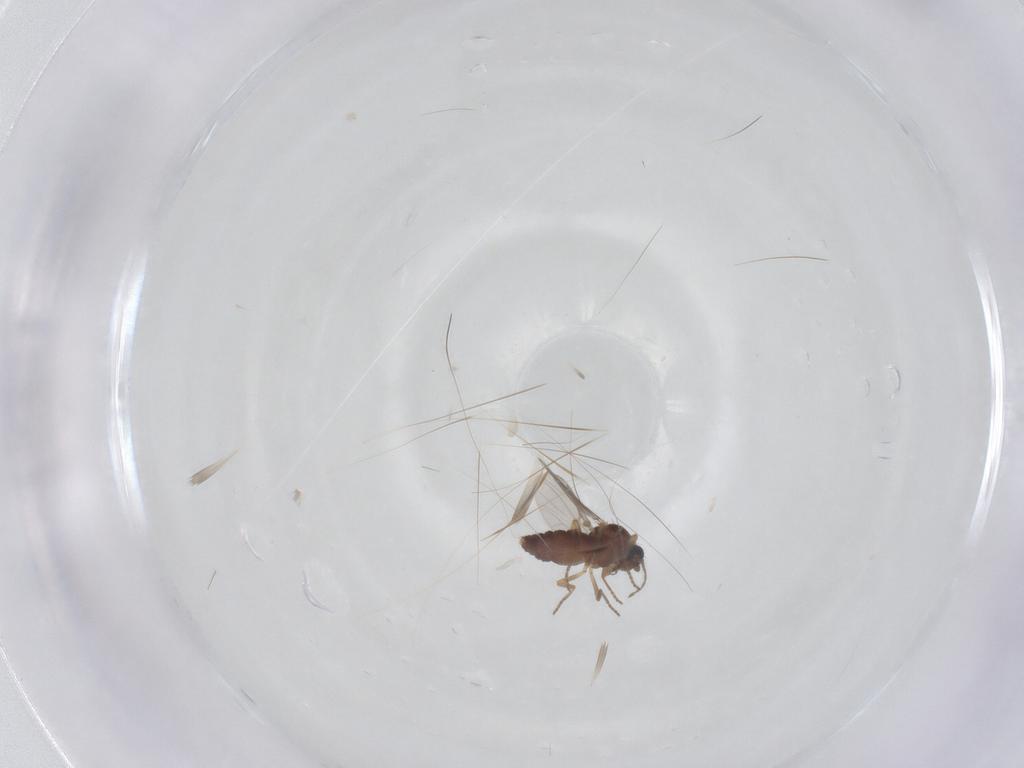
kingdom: Animalia
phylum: Arthropoda
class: Insecta
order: Diptera
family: Ceratopogonidae
